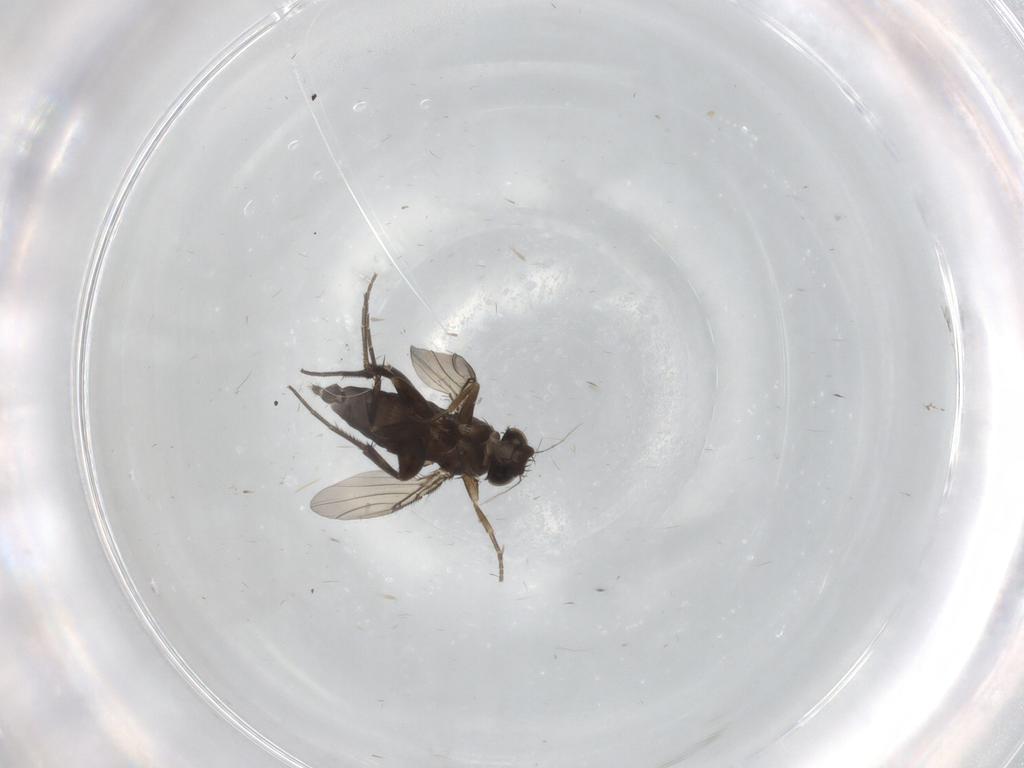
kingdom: Animalia
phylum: Arthropoda
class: Insecta
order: Diptera
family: Phoridae
